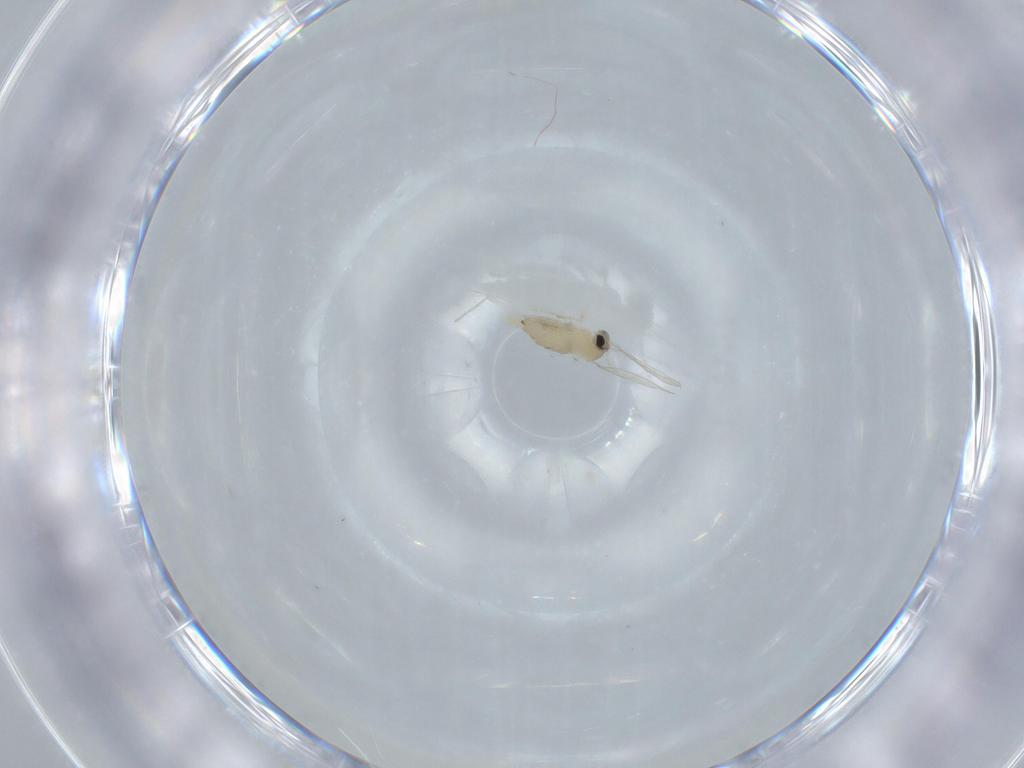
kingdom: Animalia
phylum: Arthropoda
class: Insecta
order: Diptera
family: Cecidomyiidae
